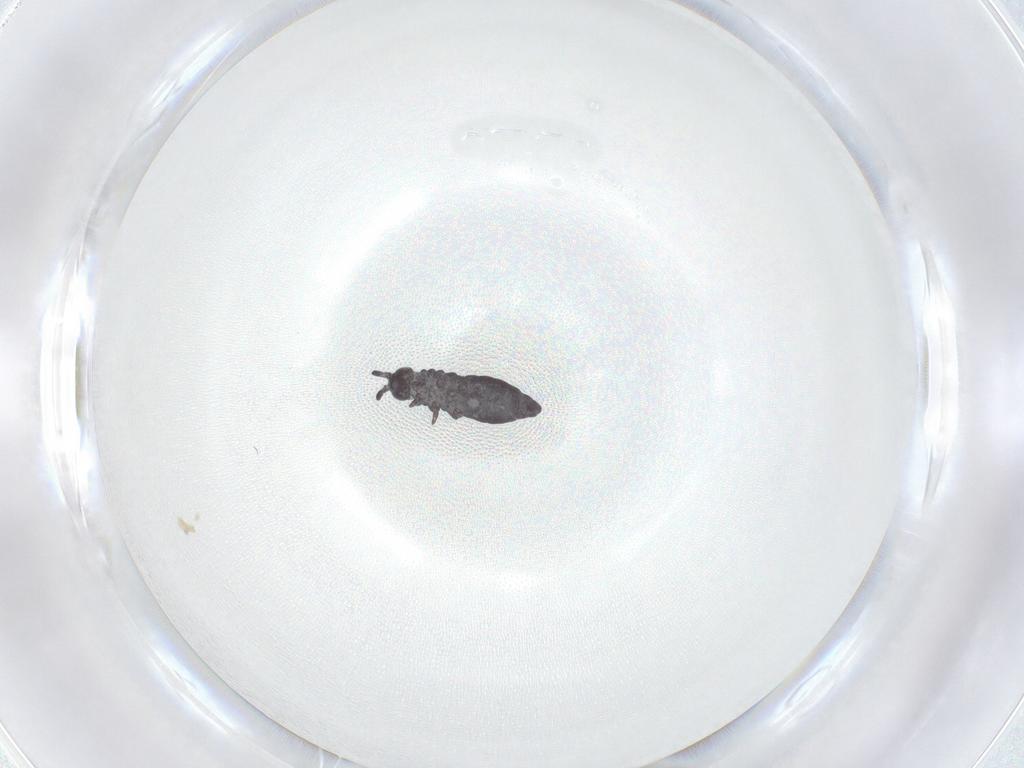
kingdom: Animalia
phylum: Arthropoda
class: Collembola
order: Poduromorpha
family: Hypogastruridae
